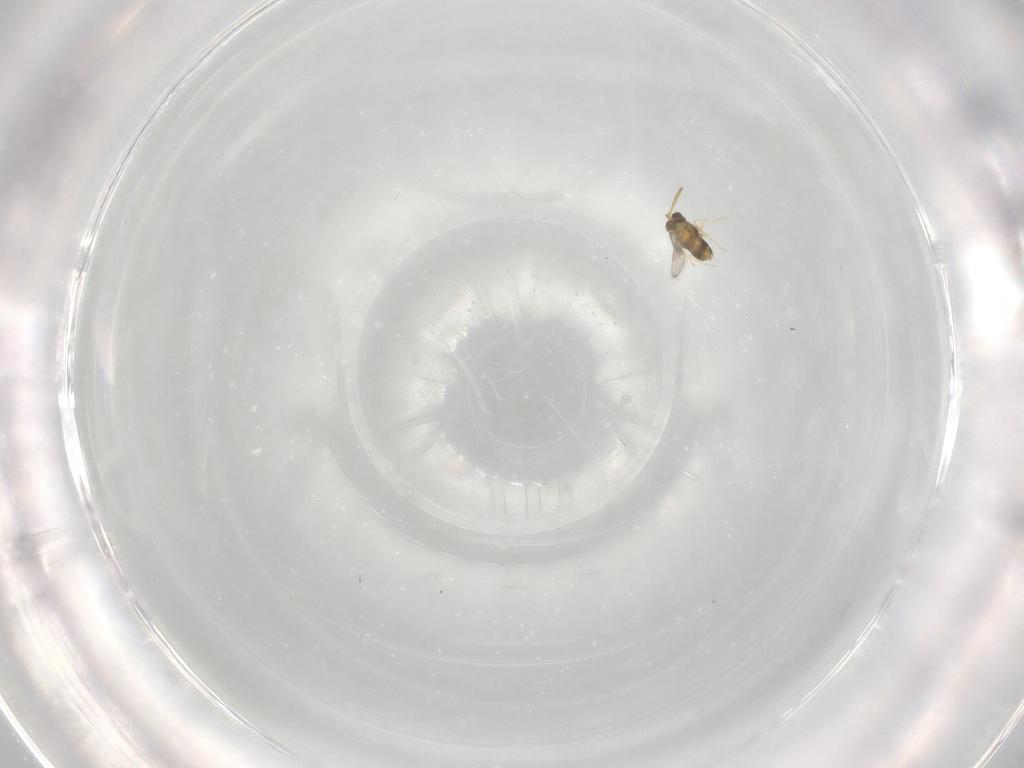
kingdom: Animalia
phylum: Arthropoda
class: Insecta
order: Hymenoptera
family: Aphelinidae
